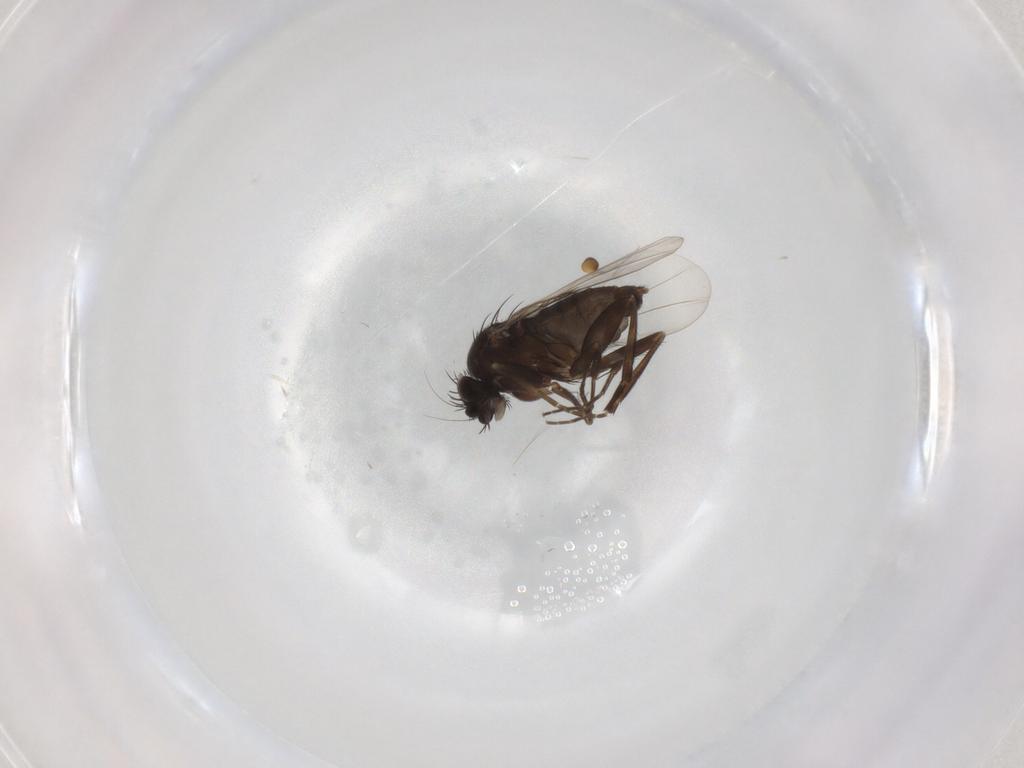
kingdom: Animalia
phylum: Arthropoda
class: Insecta
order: Diptera
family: Phoridae
